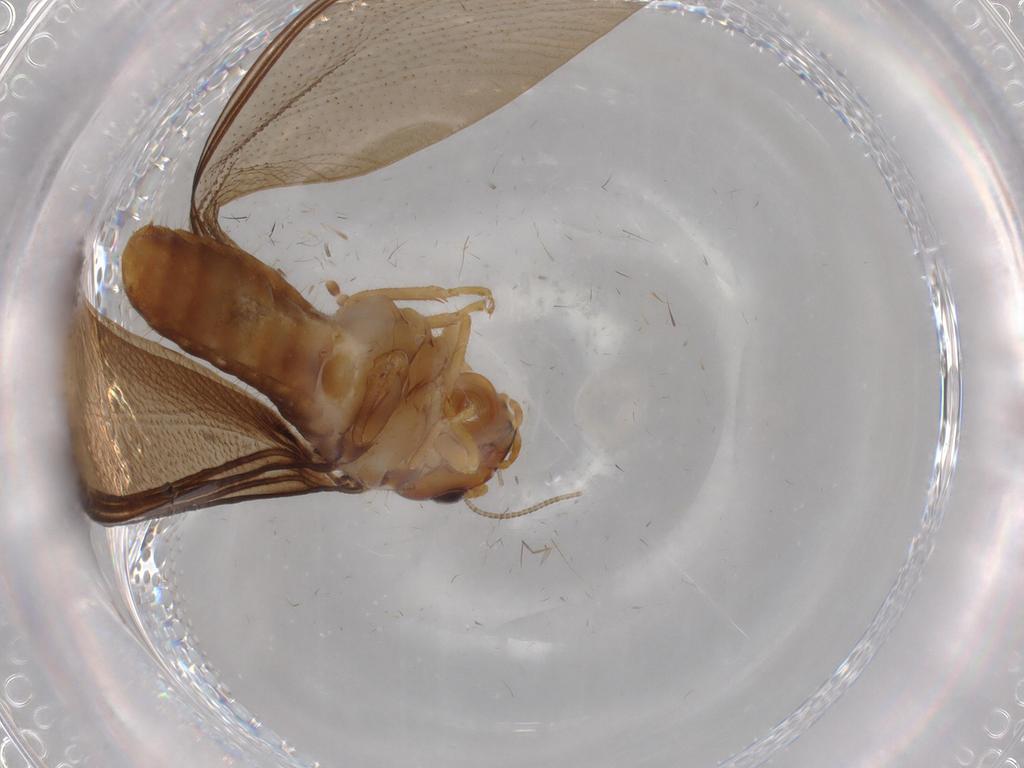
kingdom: Animalia
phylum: Arthropoda
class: Insecta
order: Blattodea
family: Kalotermitidae
